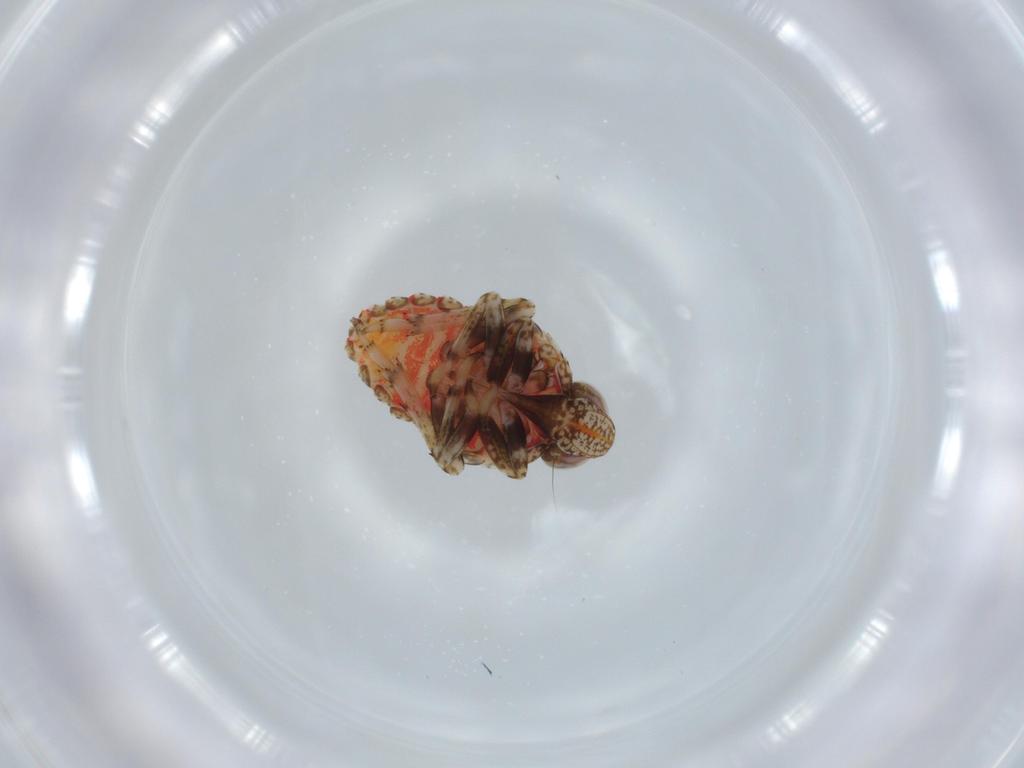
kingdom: Animalia
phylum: Arthropoda
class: Insecta
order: Hemiptera
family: Issidae
